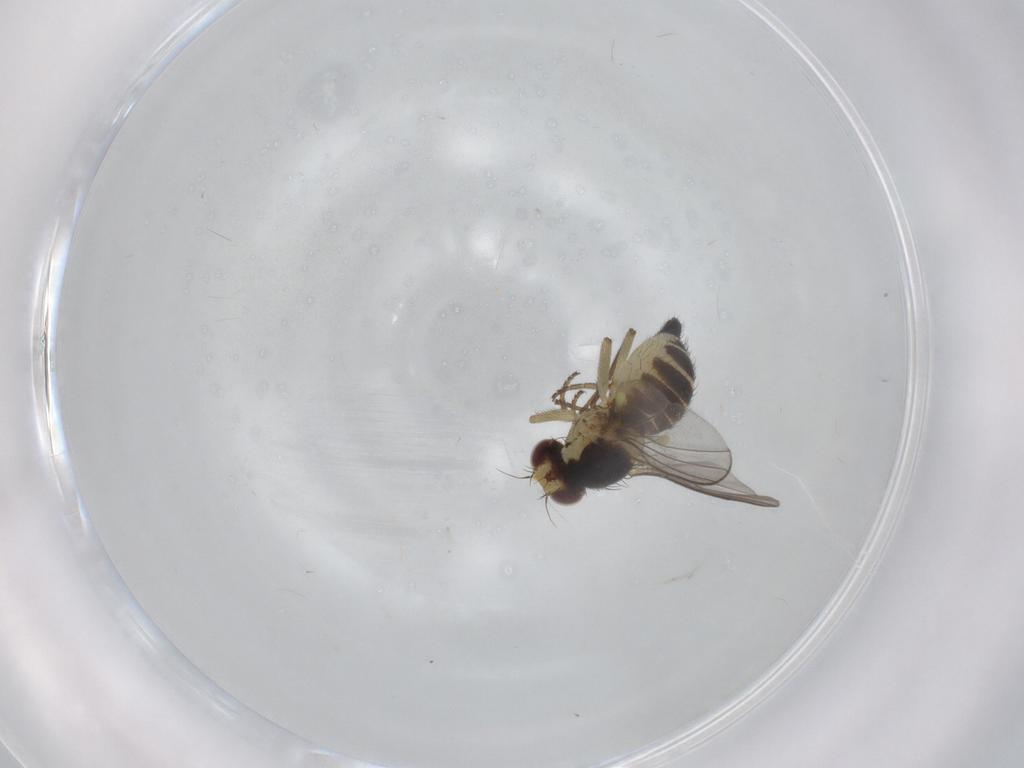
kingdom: Animalia
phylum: Arthropoda
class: Insecta
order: Diptera
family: Agromyzidae
